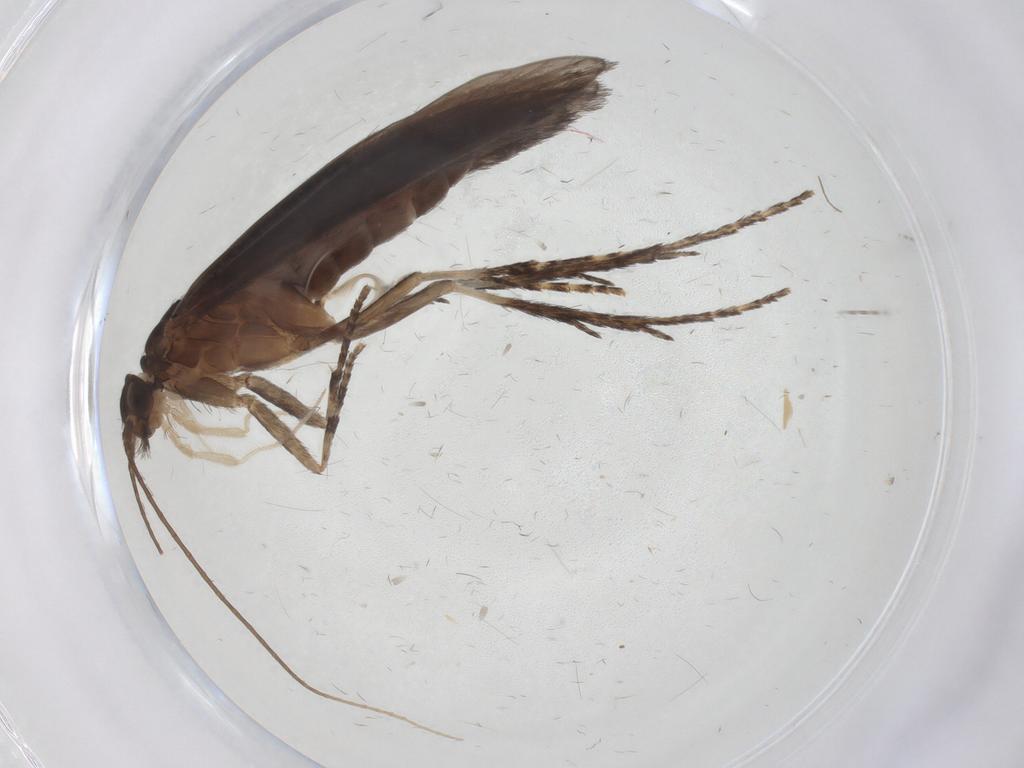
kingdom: Animalia
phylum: Arthropoda
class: Insecta
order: Trichoptera
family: Xiphocentronidae
